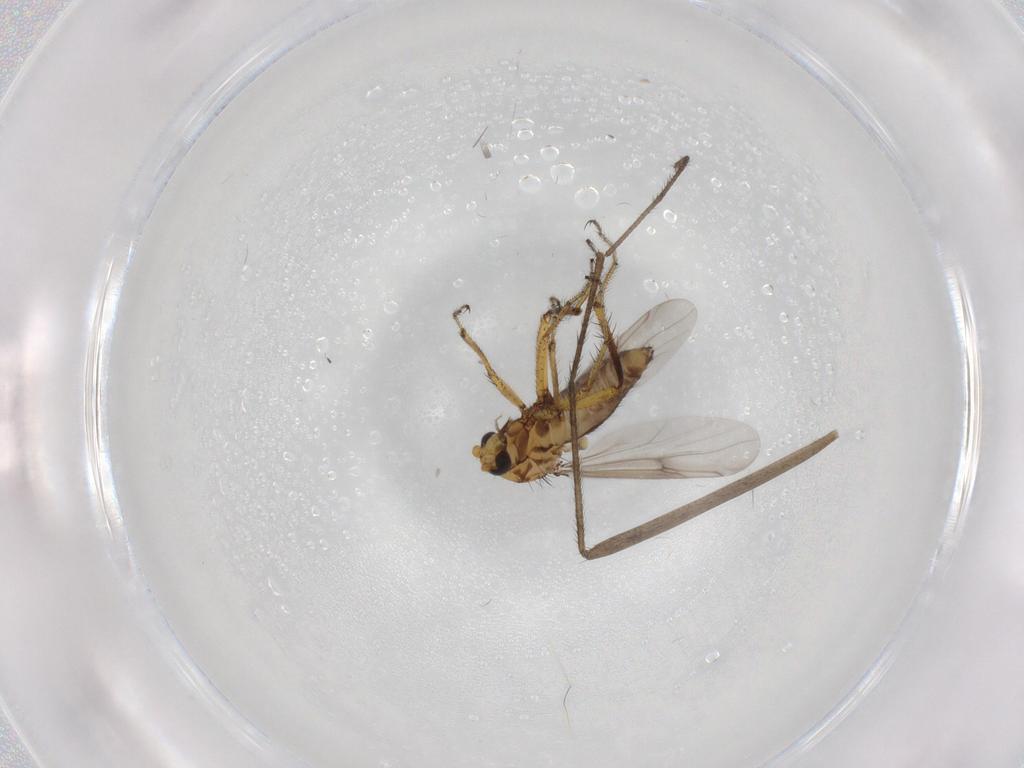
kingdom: Animalia
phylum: Arthropoda
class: Insecta
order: Diptera
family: Ceratopogonidae
